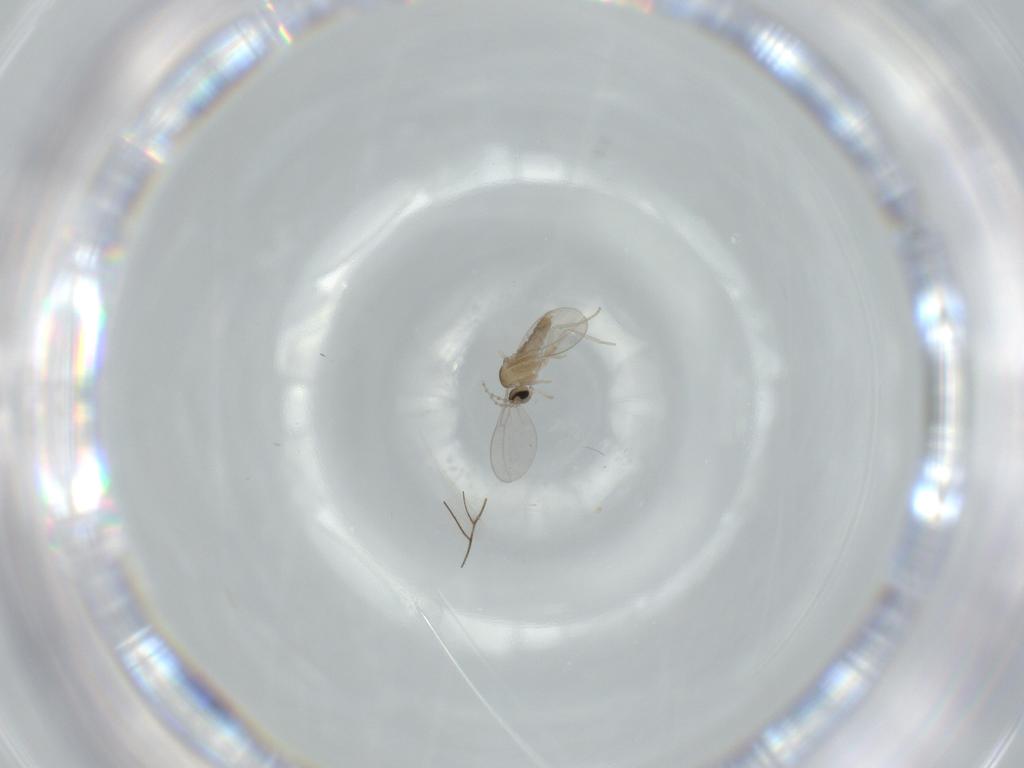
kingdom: Animalia
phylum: Arthropoda
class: Insecta
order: Diptera
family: Cecidomyiidae
